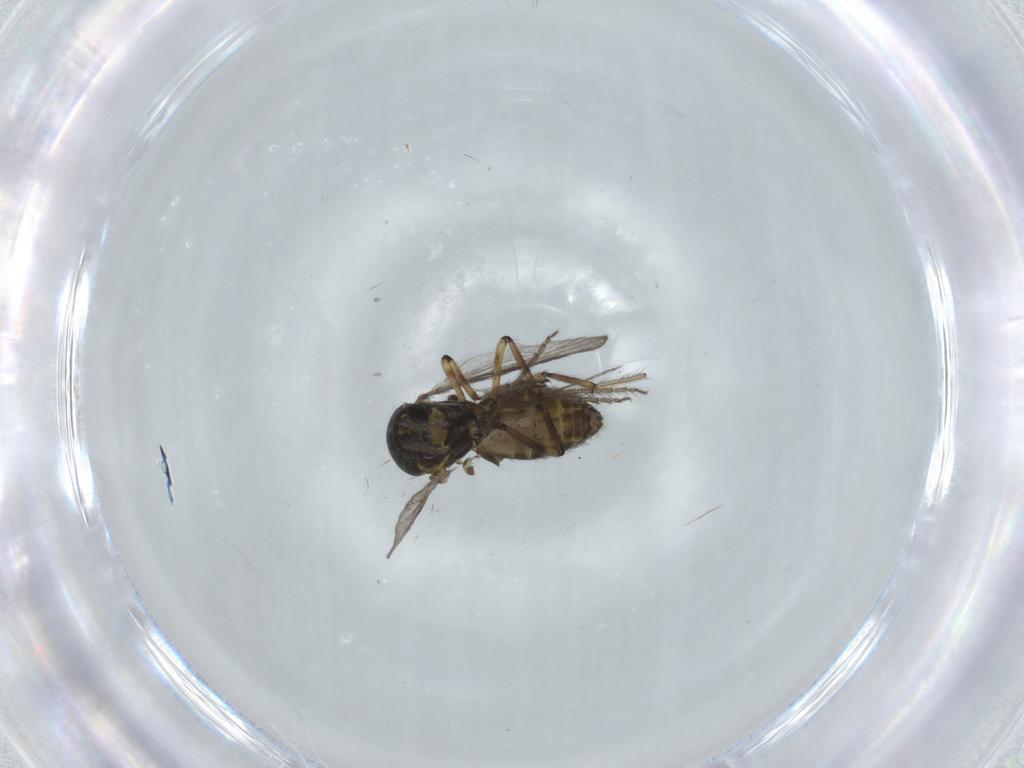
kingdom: Animalia
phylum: Arthropoda
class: Insecta
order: Diptera
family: Ceratopogonidae
